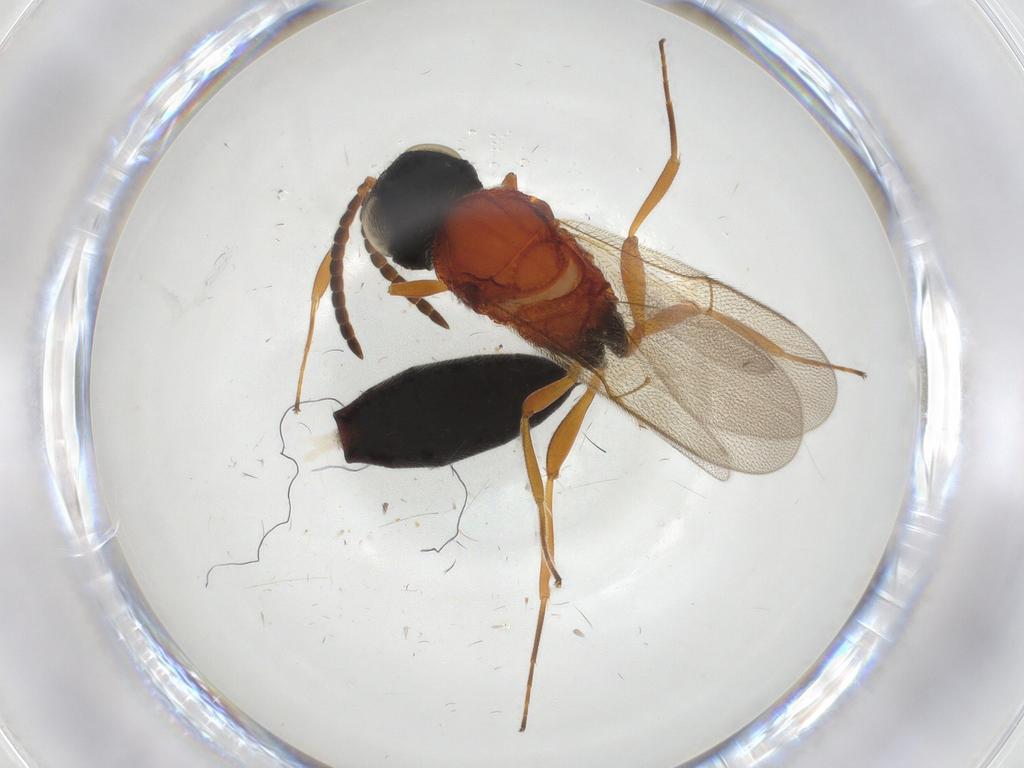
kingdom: Animalia
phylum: Arthropoda
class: Insecta
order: Hymenoptera
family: Scelionidae
